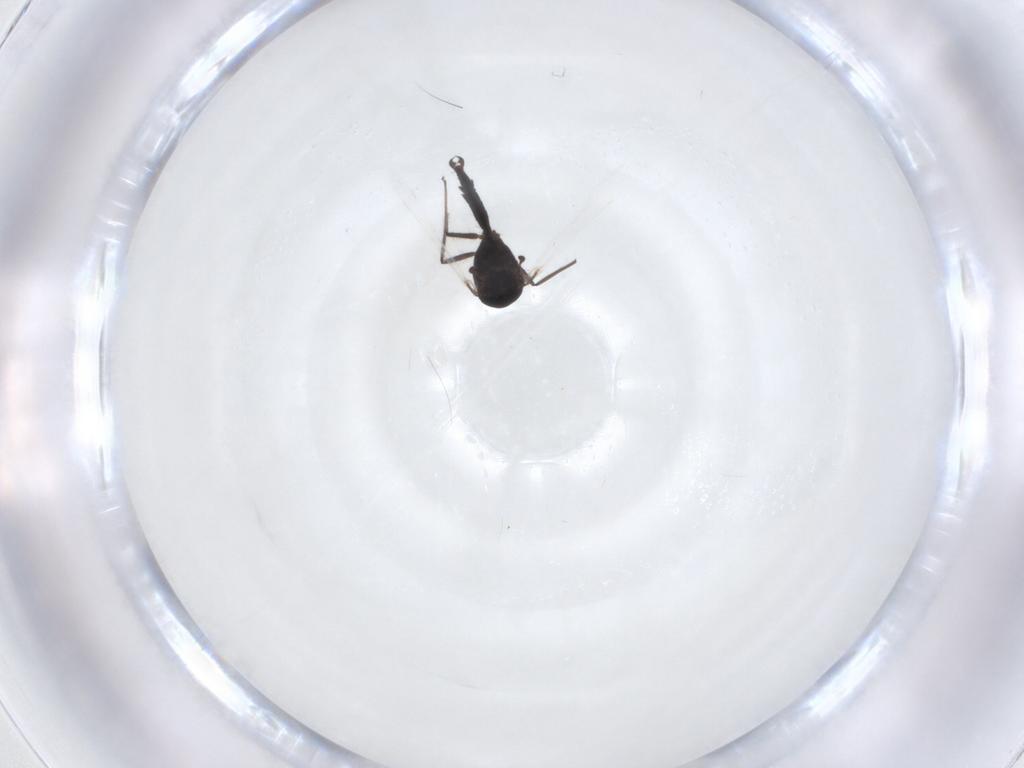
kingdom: Animalia
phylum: Arthropoda
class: Insecta
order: Diptera
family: Chironomidae
